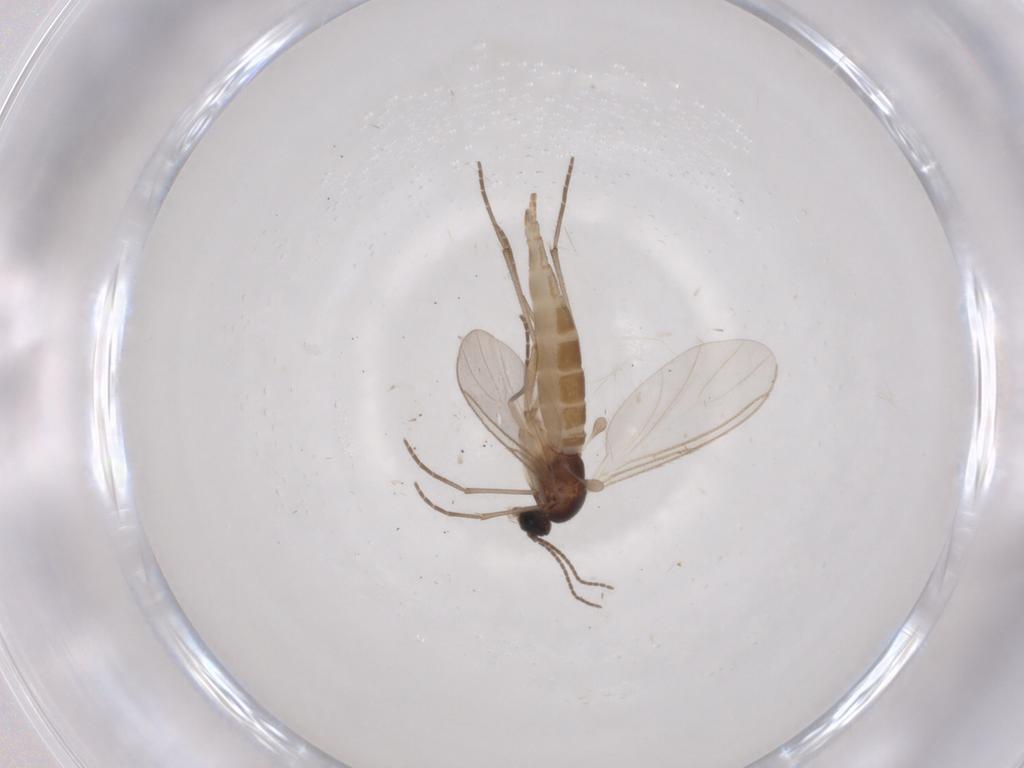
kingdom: Animalia
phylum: Arthropoda
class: Insecta
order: Diptera
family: Sciaridae
